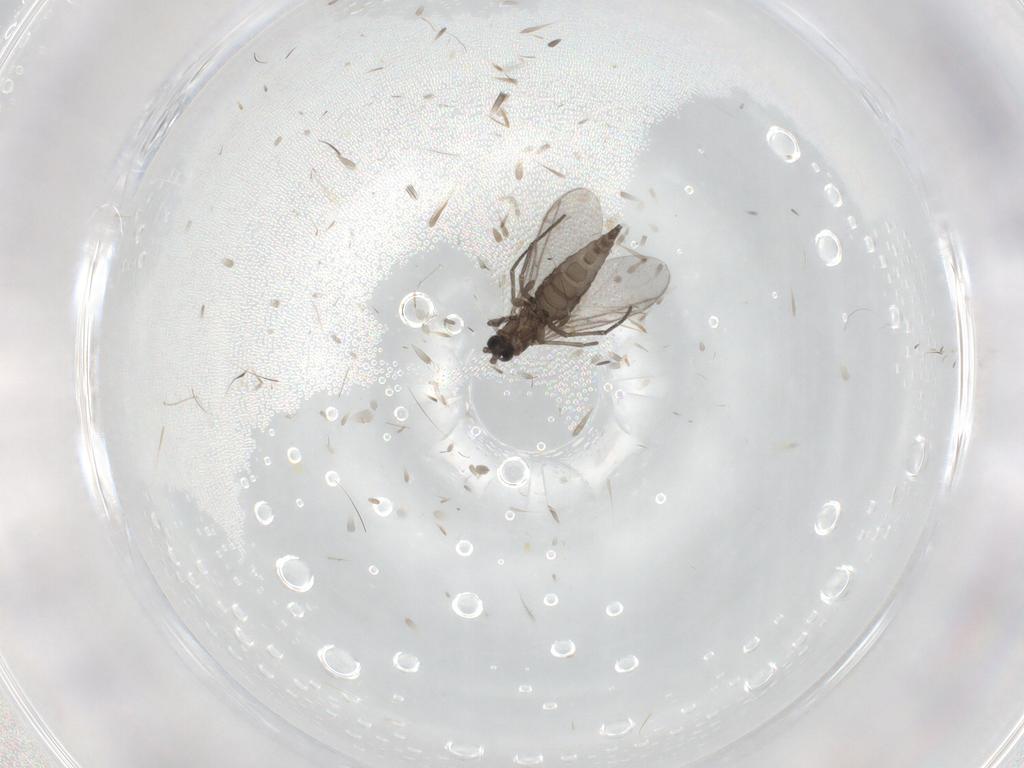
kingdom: Animalia
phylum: Arthropoda
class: Insecta
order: Diptera
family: Cecidomyiidae
